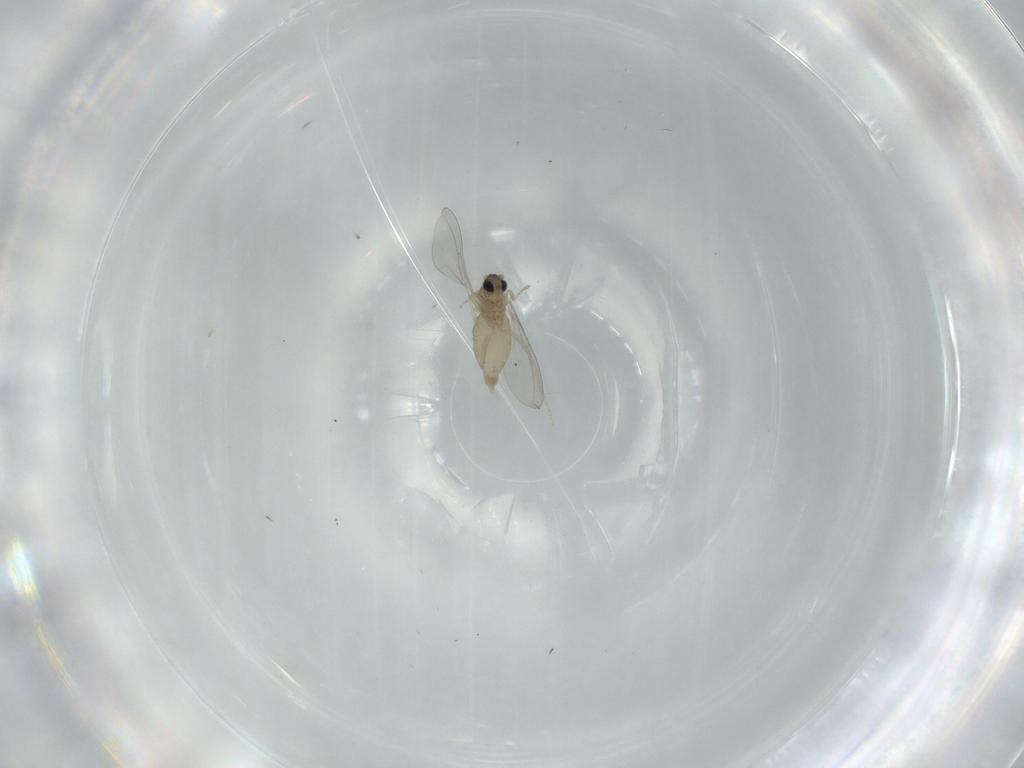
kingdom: Animalia
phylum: Arthropoda
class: Insecta
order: Diptera
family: Cecidomyiidae
